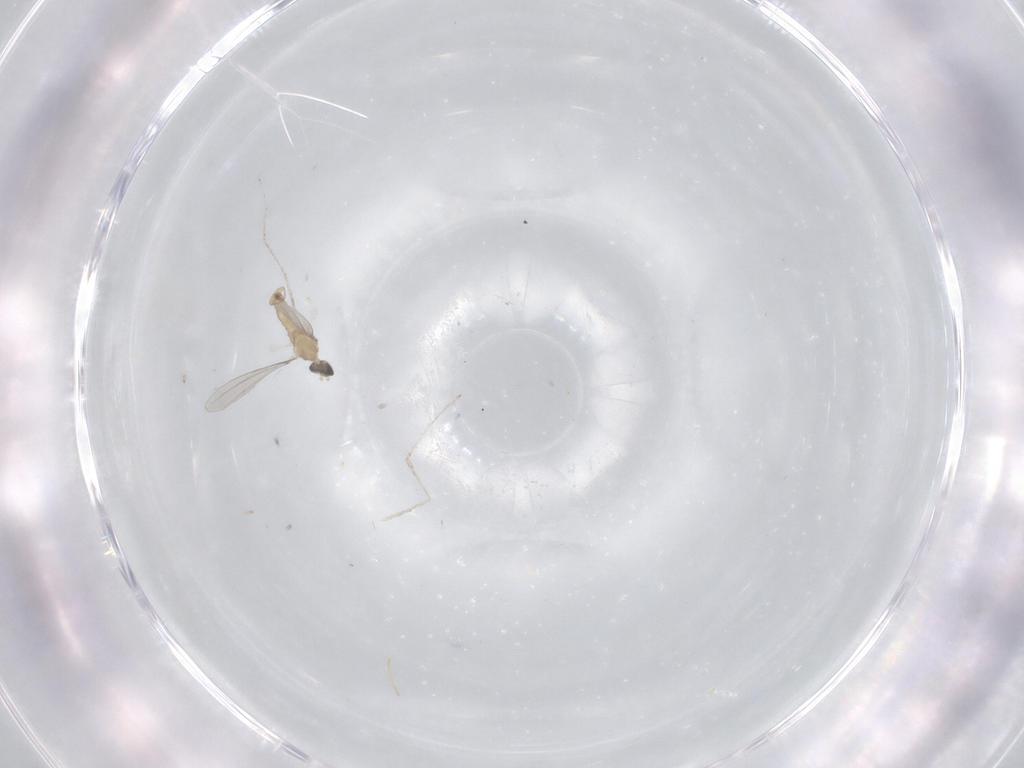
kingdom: Animalia
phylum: Arthropoda
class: Insecta
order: Diptera
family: Cecidomyiidae
